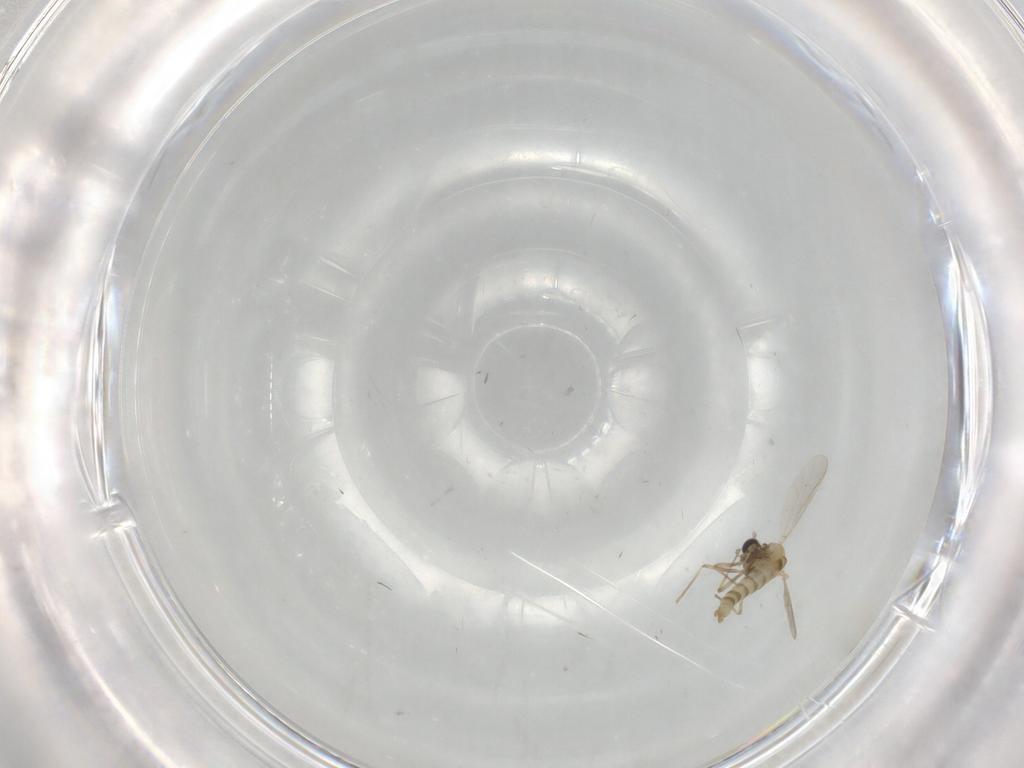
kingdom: Animalia
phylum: Arthropoda
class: Insecta
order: Diptera
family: Chironomidae
